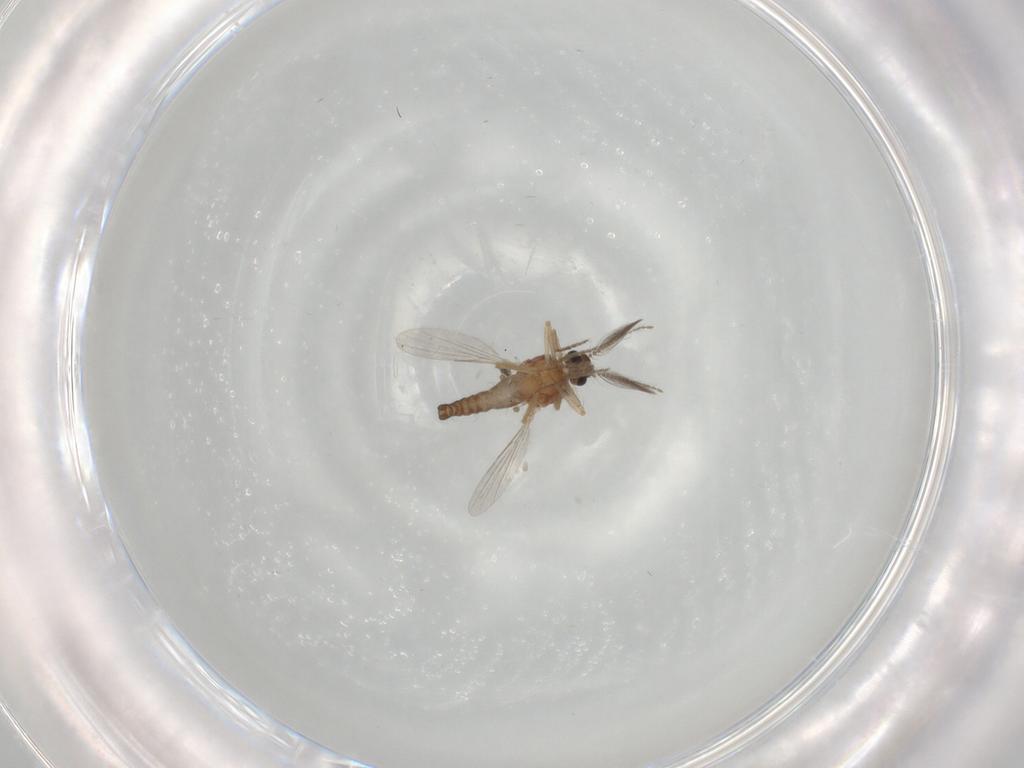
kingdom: Animalia
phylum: Arthropoda
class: Insecta
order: Diptera
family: Ceratopogonidae
